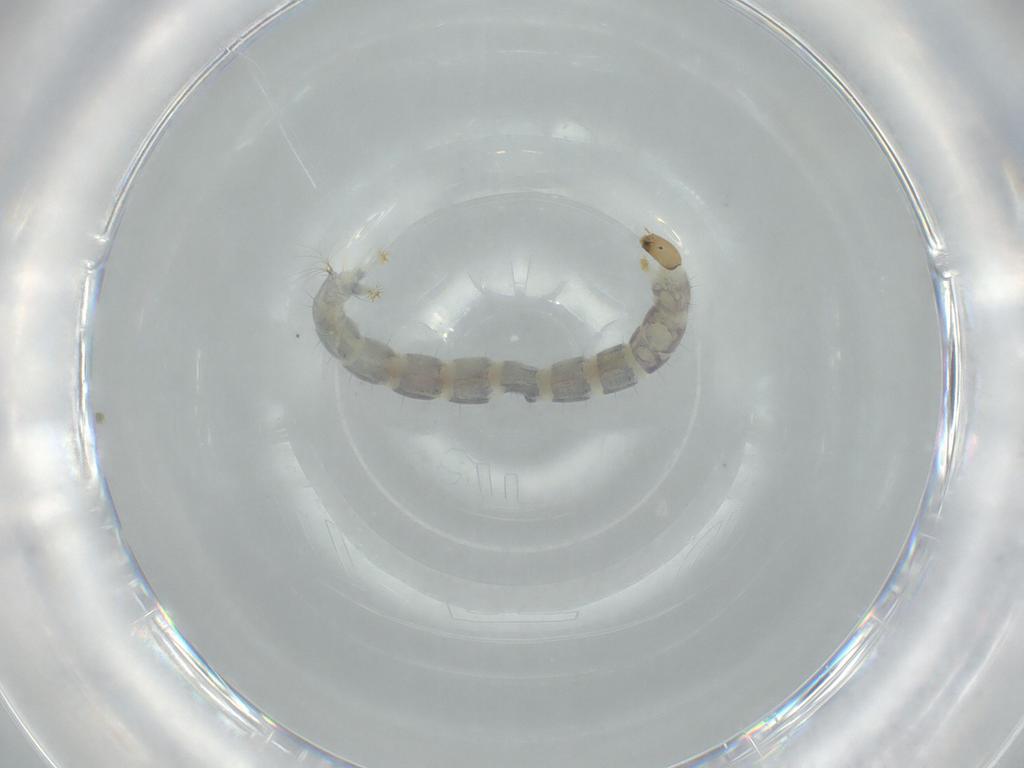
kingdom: Animalia
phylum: Arthropoda
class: Insecta
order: Diptera
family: Chironomidae
